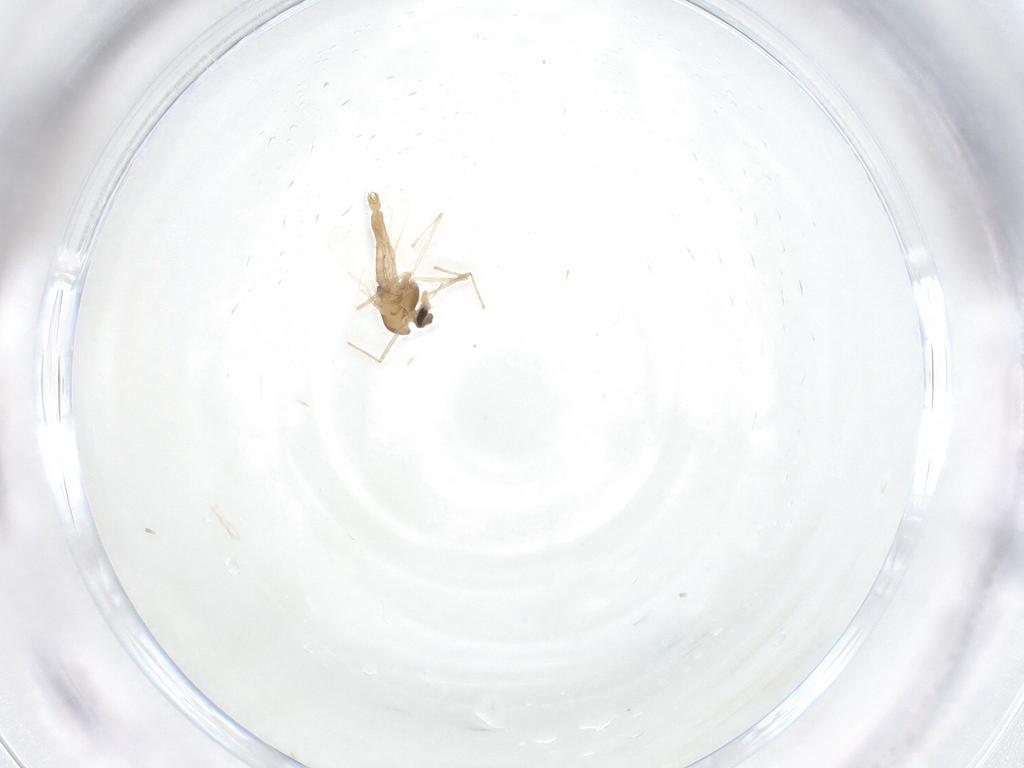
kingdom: Animalia
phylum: Arthropoda
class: Insecta
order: Diptera
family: Chironomidae
